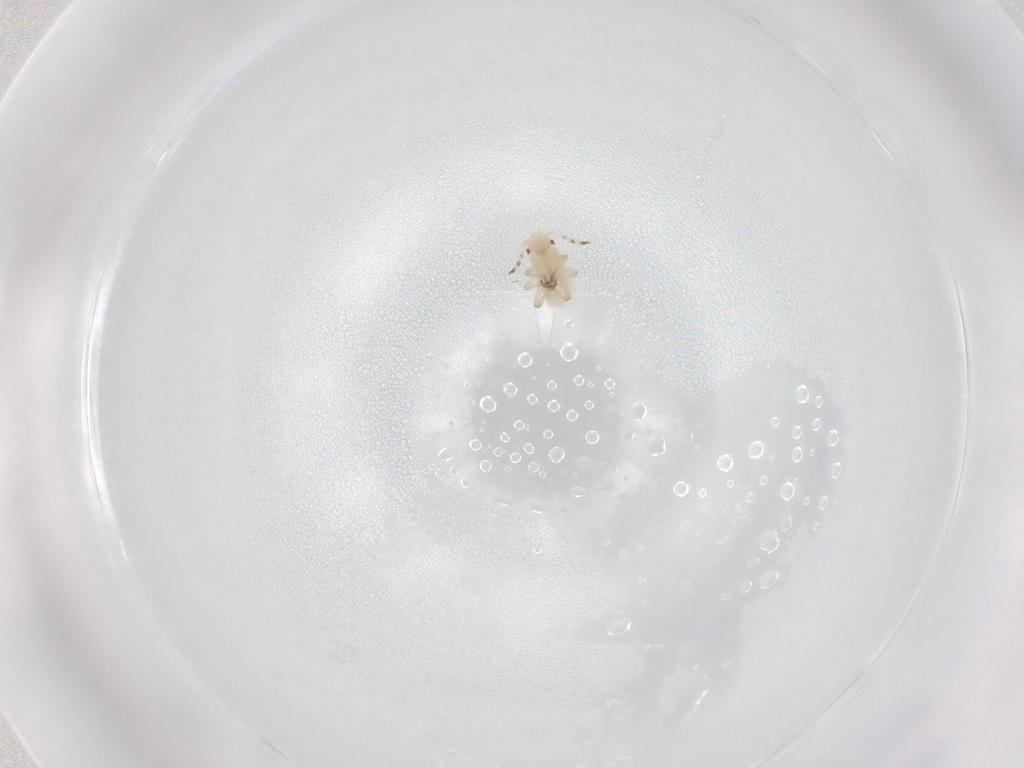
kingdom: Animalia
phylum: Arthropoda
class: Insecta
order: Hemiptera
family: Aphididae
